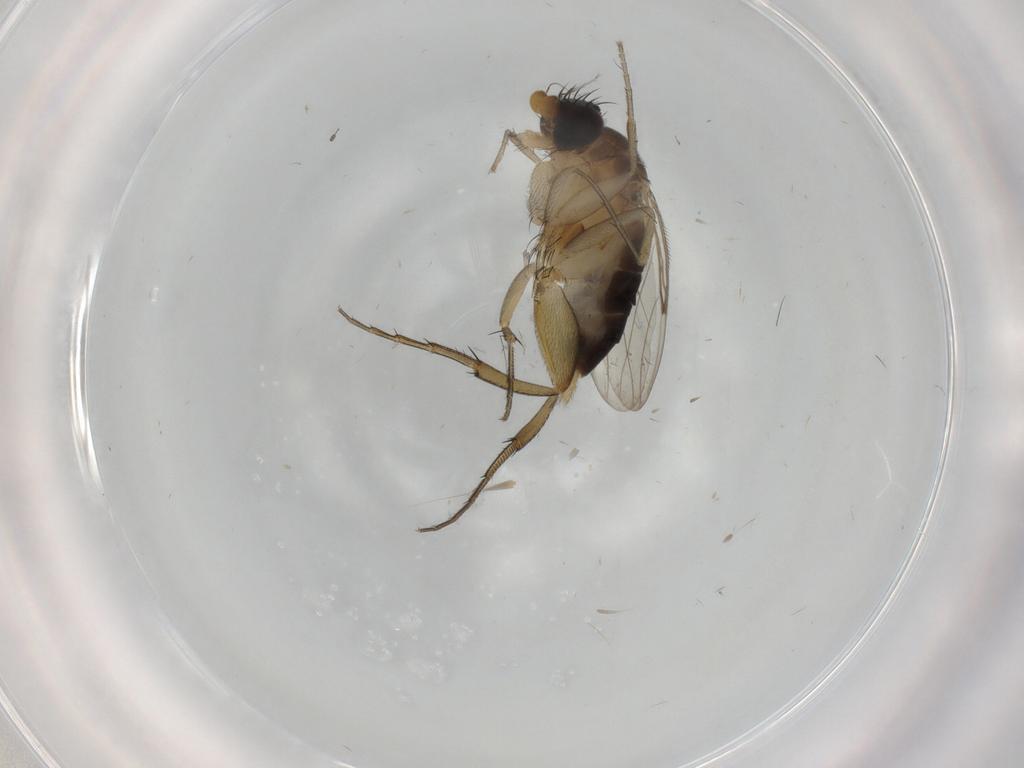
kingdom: Animalia
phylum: Arthropoda
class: Insecta
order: Diptera
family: Phoridae
